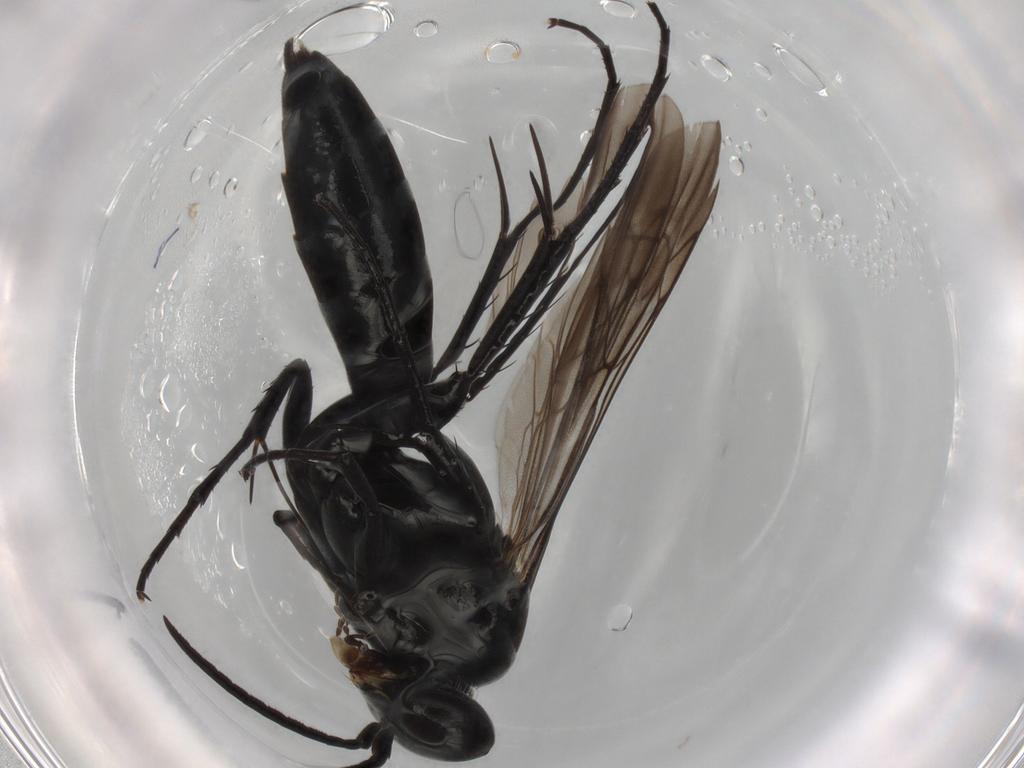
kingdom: Animalia
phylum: Arthropoda
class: Insecta
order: Hymenoptera
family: Pompilidae
